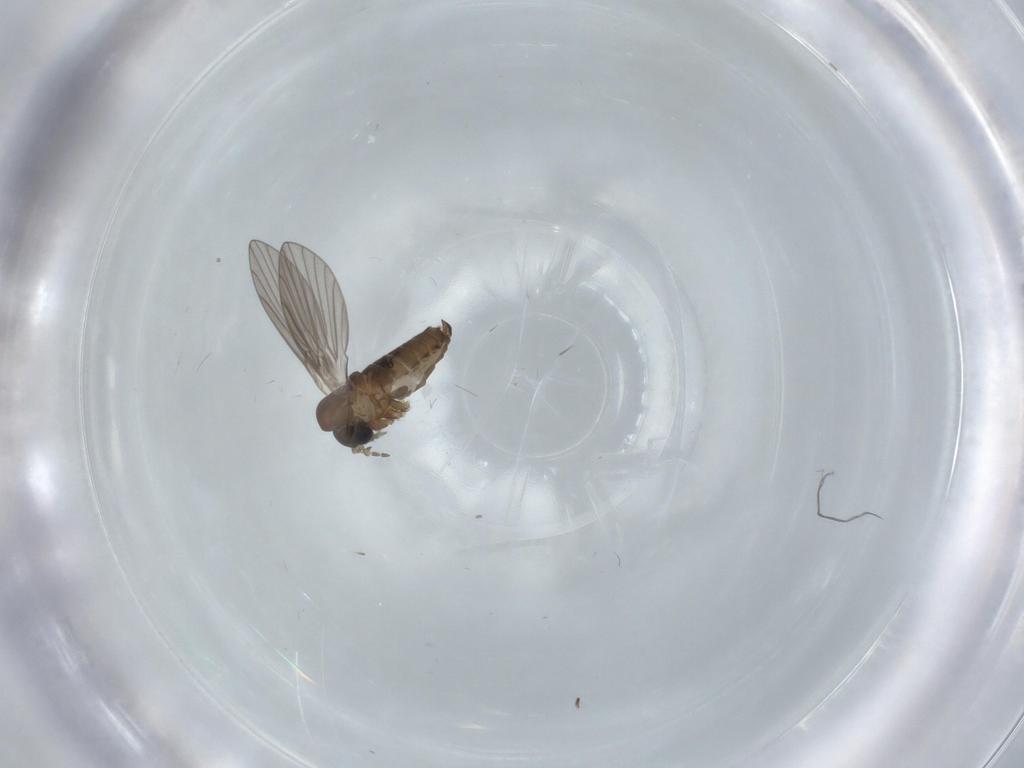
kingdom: Animalia
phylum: Arthropoda
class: Insecta
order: Diptera
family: Psychodidae
